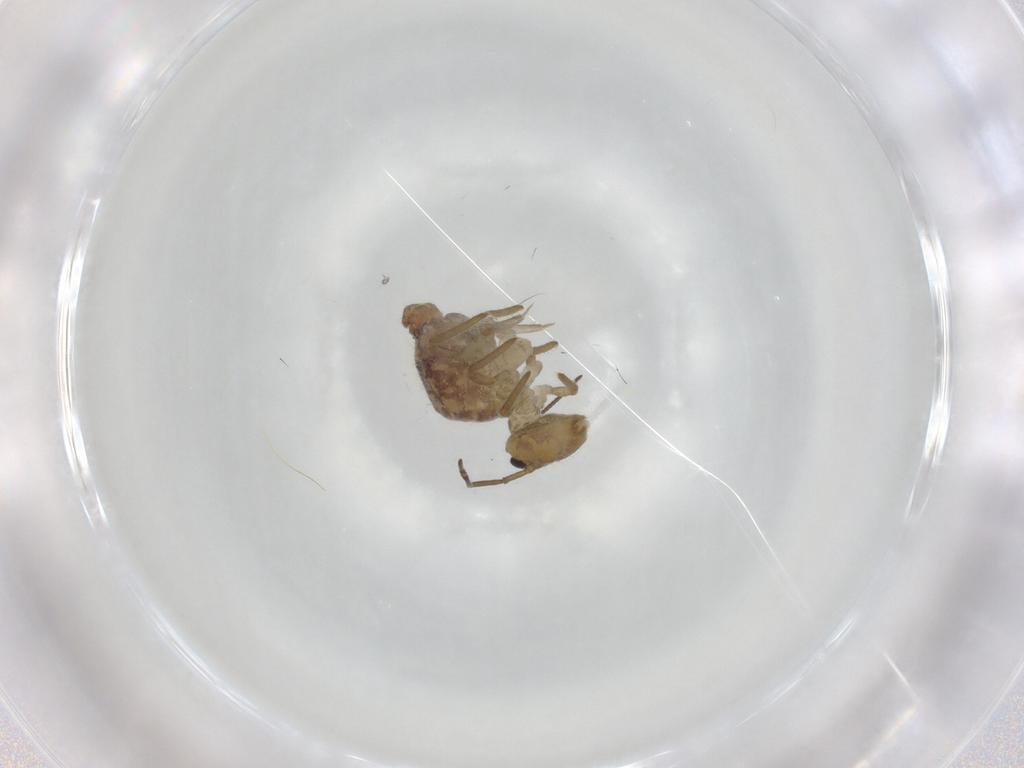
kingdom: Animalia
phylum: Arthropoda
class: Collembola
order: Symphypleona
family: Sminthuridae
